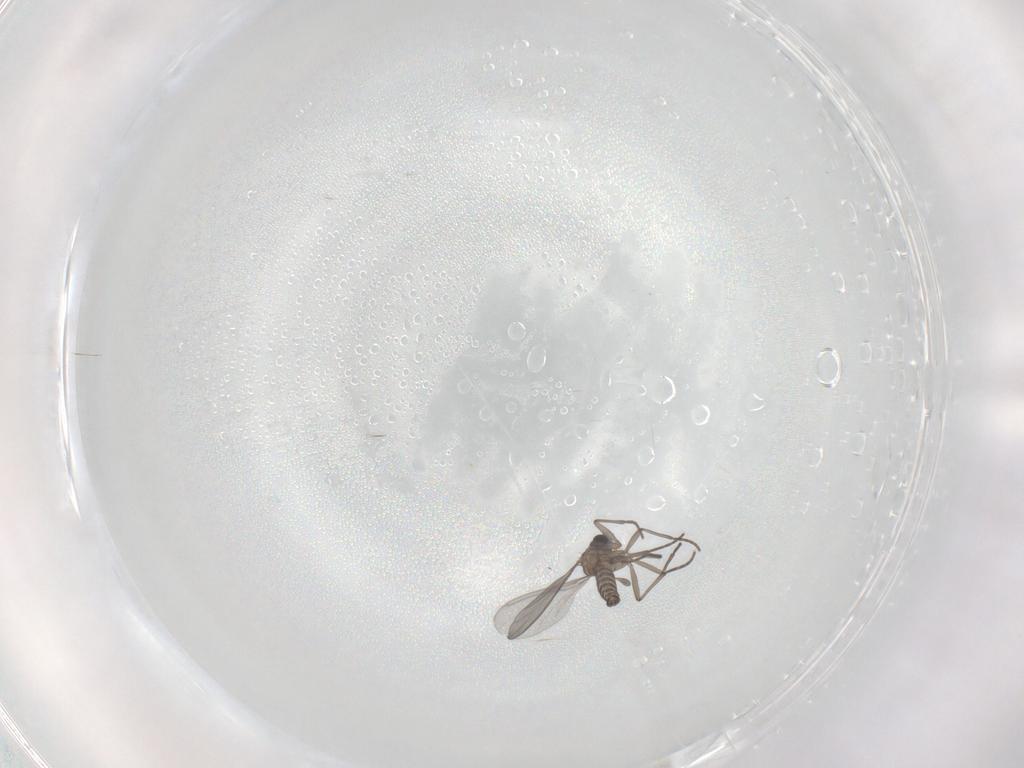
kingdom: Animalia
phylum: Arthropoda
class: Insecta
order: Diptera
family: Sciaridae
